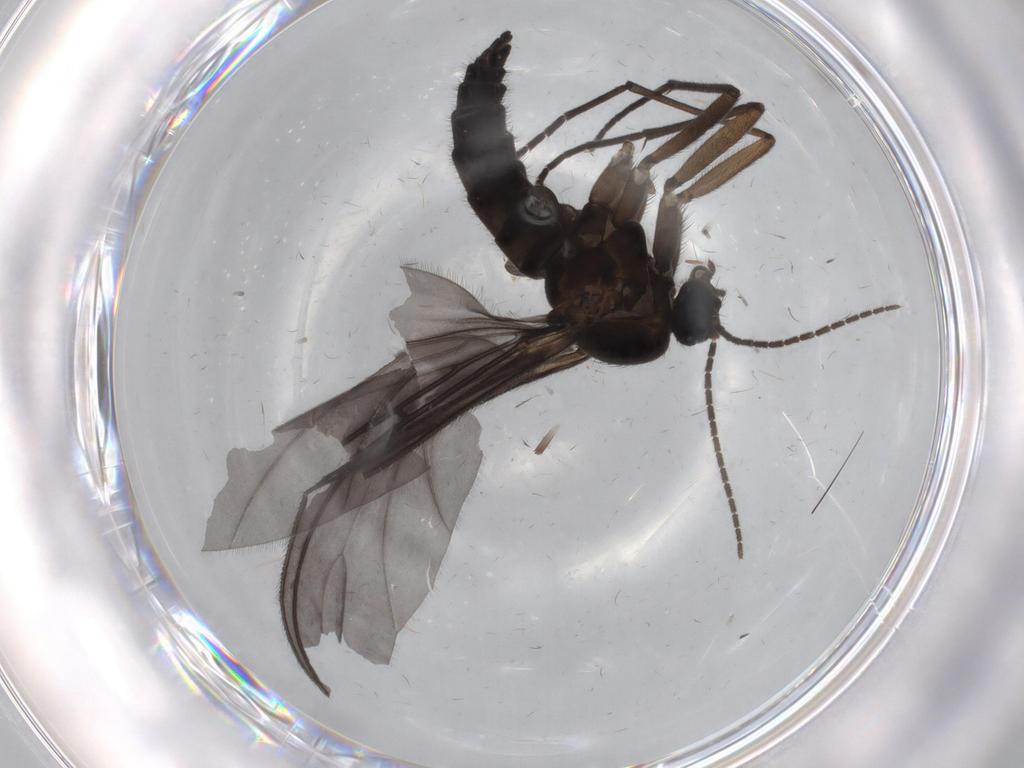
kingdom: Animalia
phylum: Arthropoda
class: Insecta
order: Diptera
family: Sciaridae
